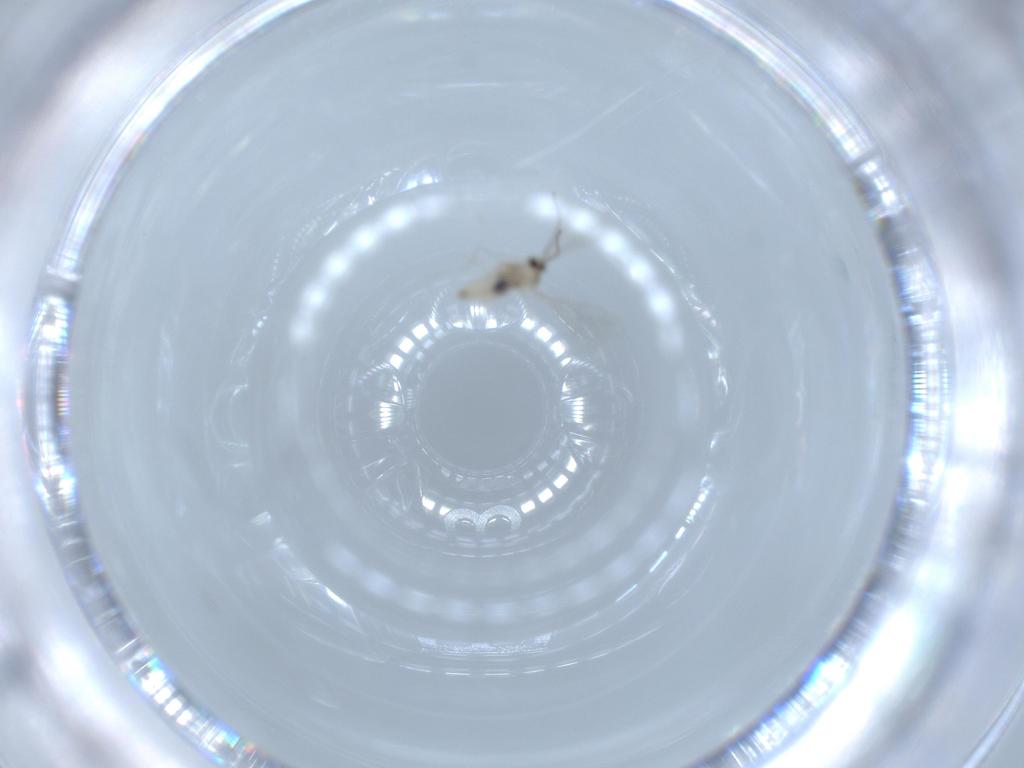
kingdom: Animalia
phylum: Arthropoda
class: Insecta
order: Diptera
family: Cecidomyiidae
